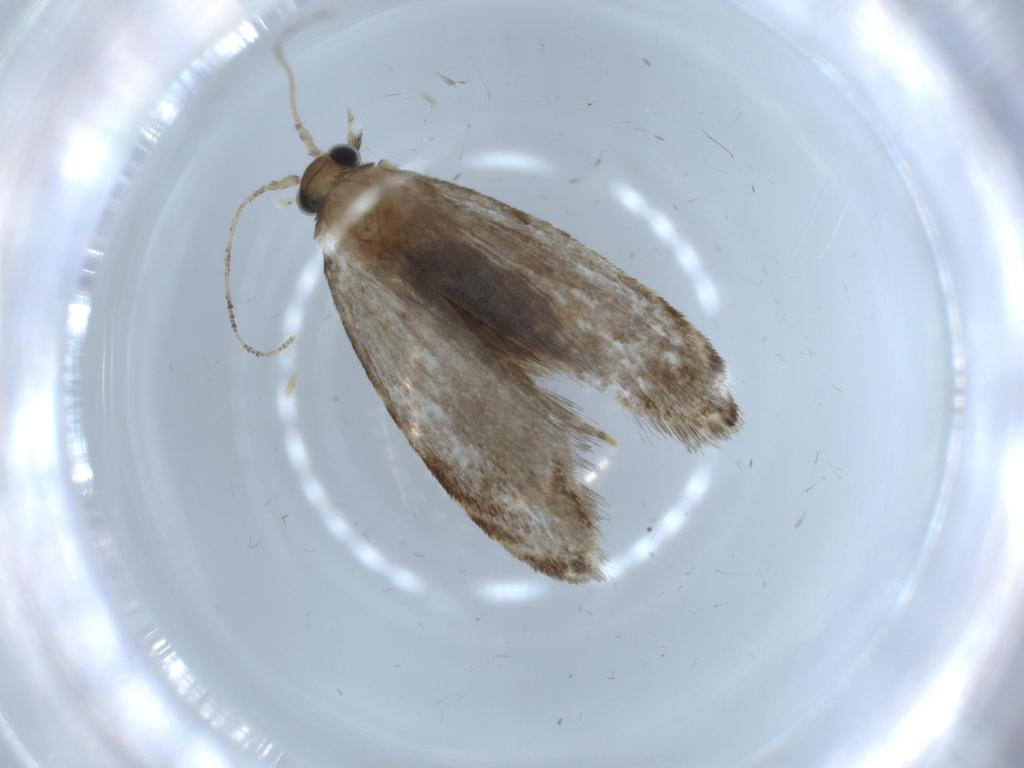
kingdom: Animalia
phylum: Arthropoda
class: Insecta
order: Lepidoptera
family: Tineidae
